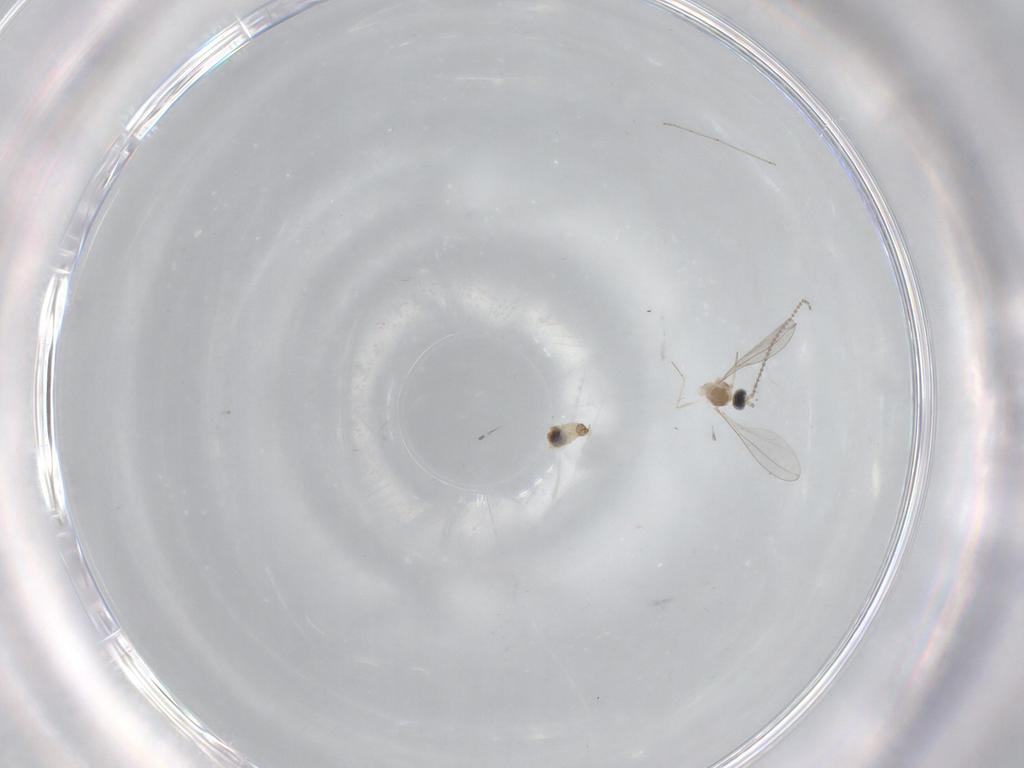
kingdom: Animalia
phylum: Arthropoda
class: Insecta
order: Diptera
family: Cecidomyiidae
